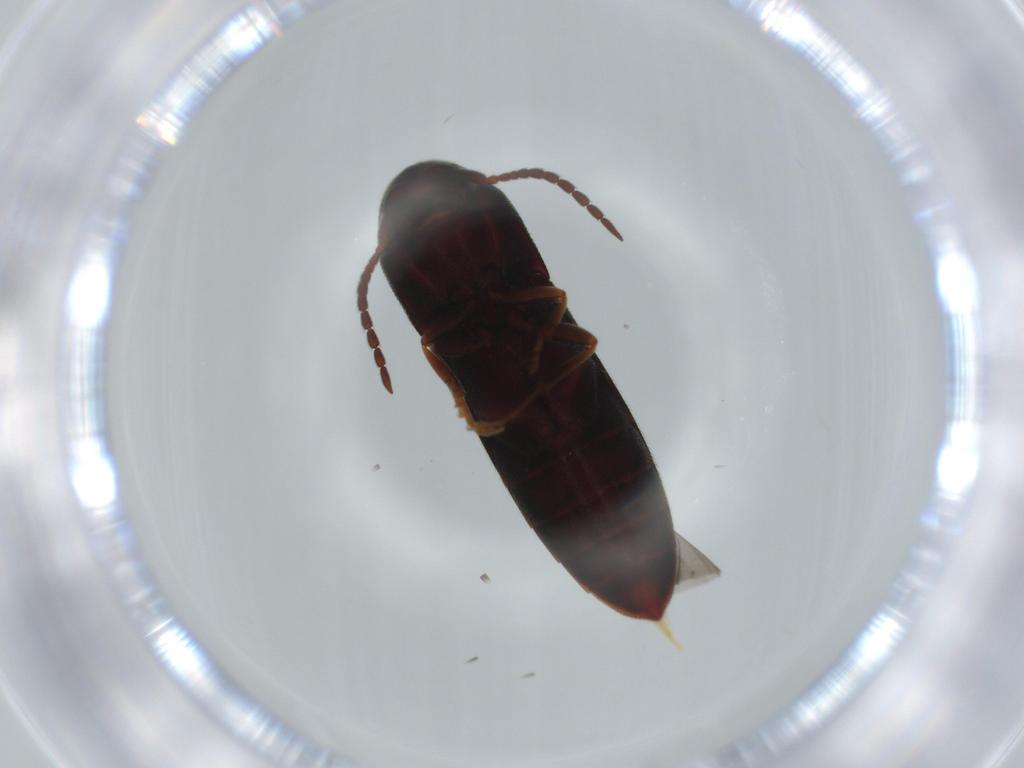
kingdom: Animalia
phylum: Arthropoda
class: Insecta
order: Coleoptera
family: Eucnemidae
